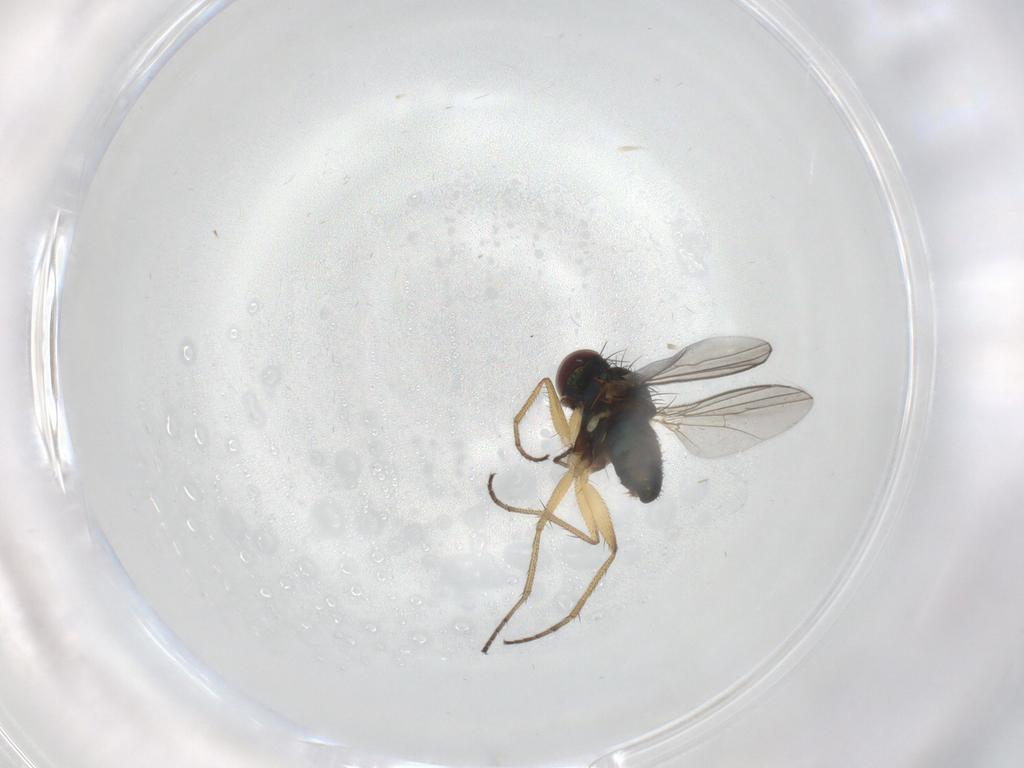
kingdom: Animalia
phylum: Arthropoda
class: Insecta
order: Diptera
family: Dolichopodidae
